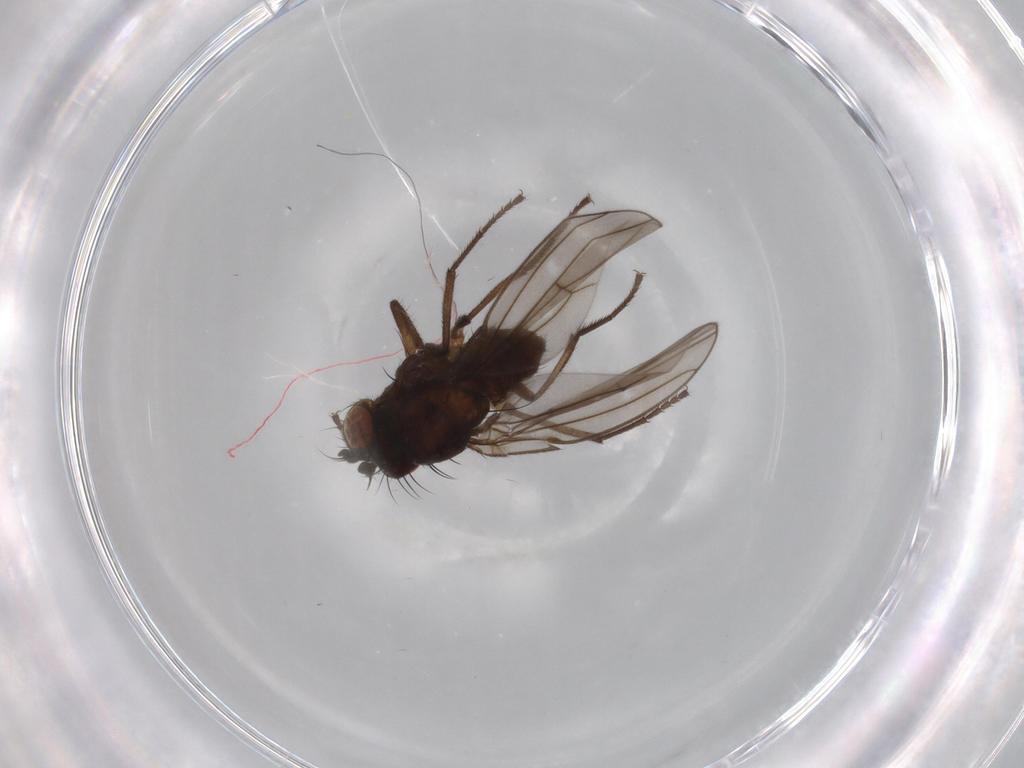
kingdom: Animalia
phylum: Arthropoda
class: Insecta
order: Diptera
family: Ephydridae
